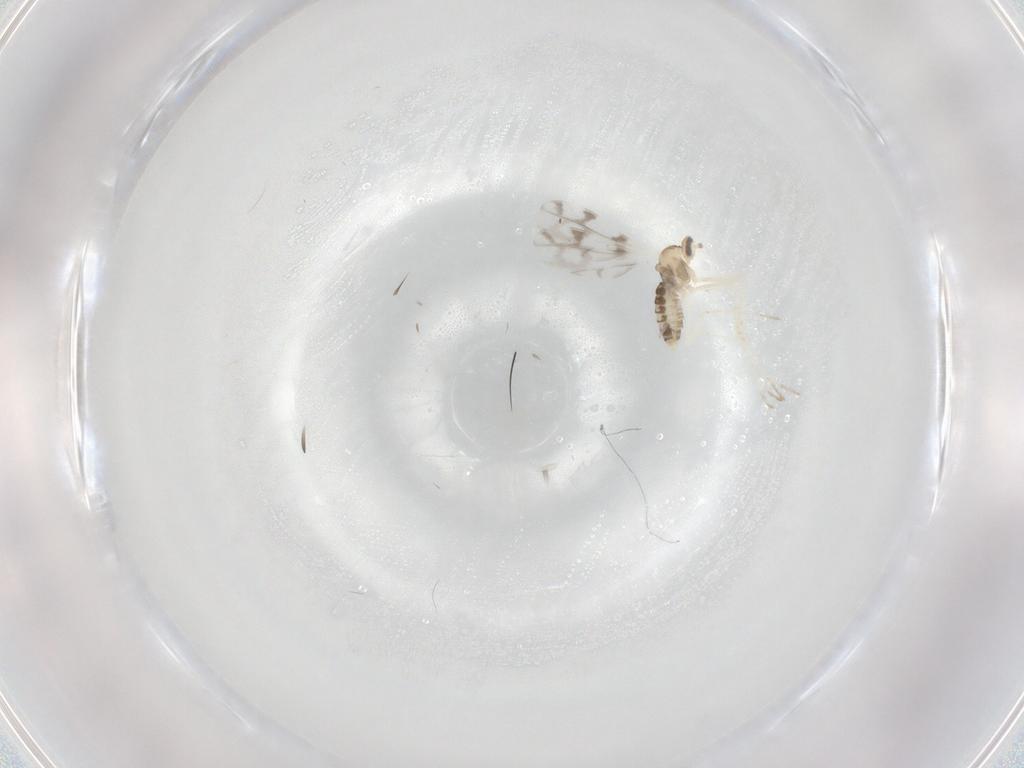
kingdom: Animalia
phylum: Arthropoda
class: Insecta
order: Diptera
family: Cecidomyiidae
